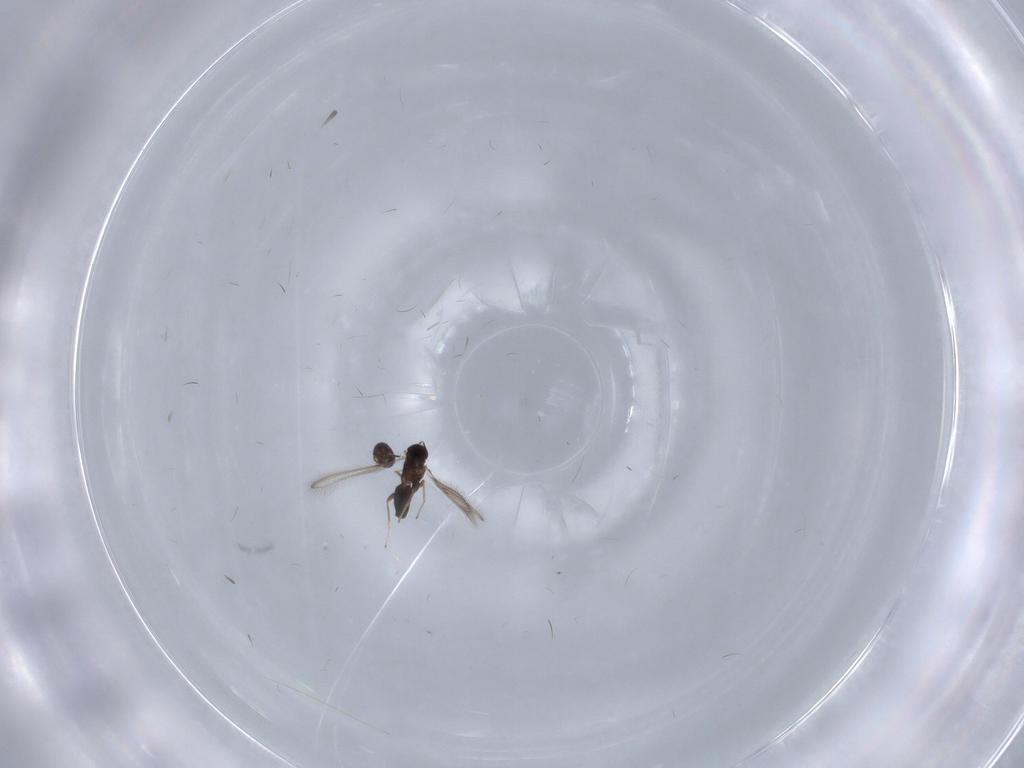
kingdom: Animalia
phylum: Arthropoda
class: Insecta
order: Hymenoptera
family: Mymaridae
